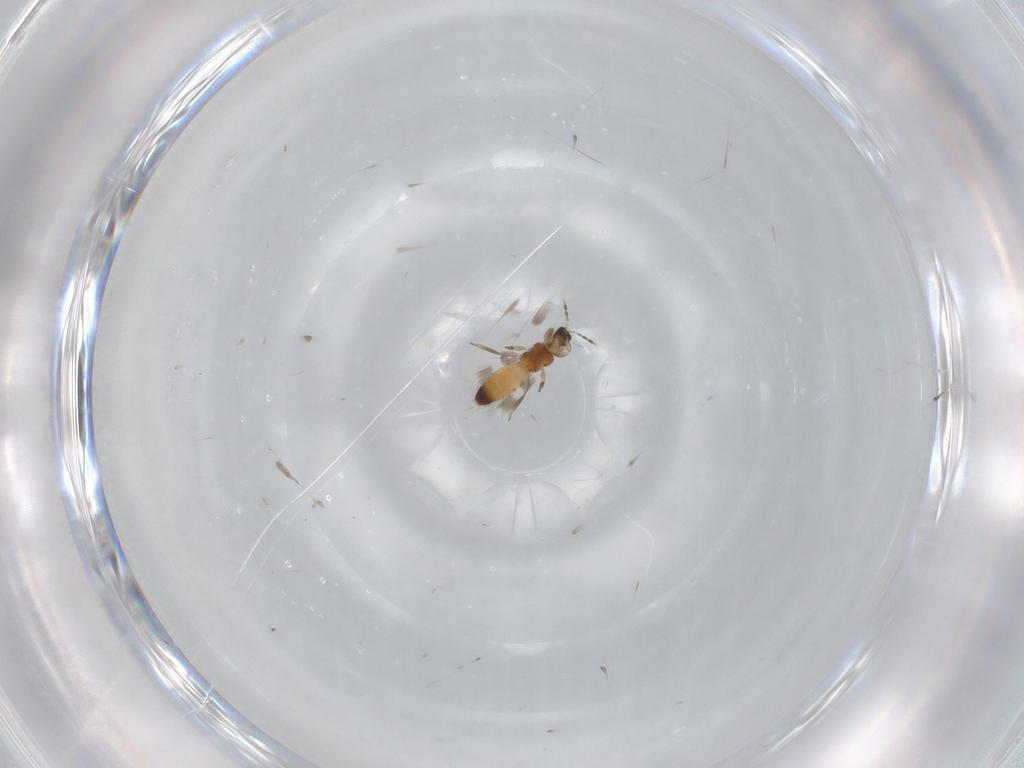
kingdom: Animalia
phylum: Arthropoda
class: Insecta
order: Thysanoptera
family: Aeolothripidae
